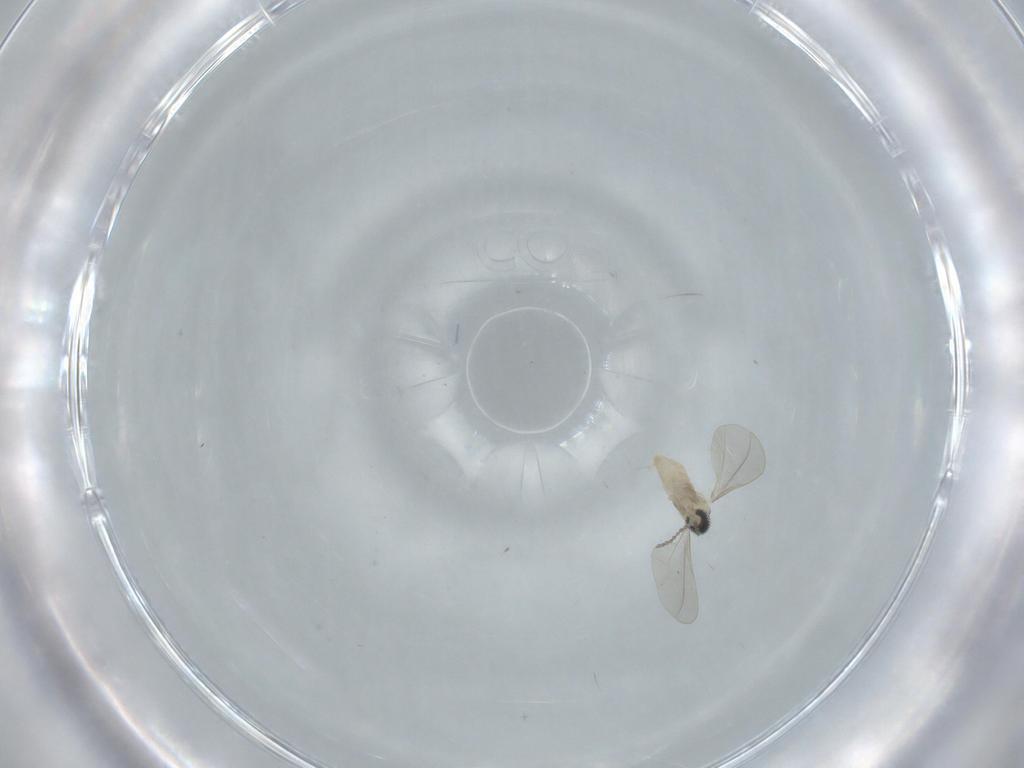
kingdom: Animalia
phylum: Arthropoda
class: Insecta
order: Diptera
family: Cecidomyiidae
